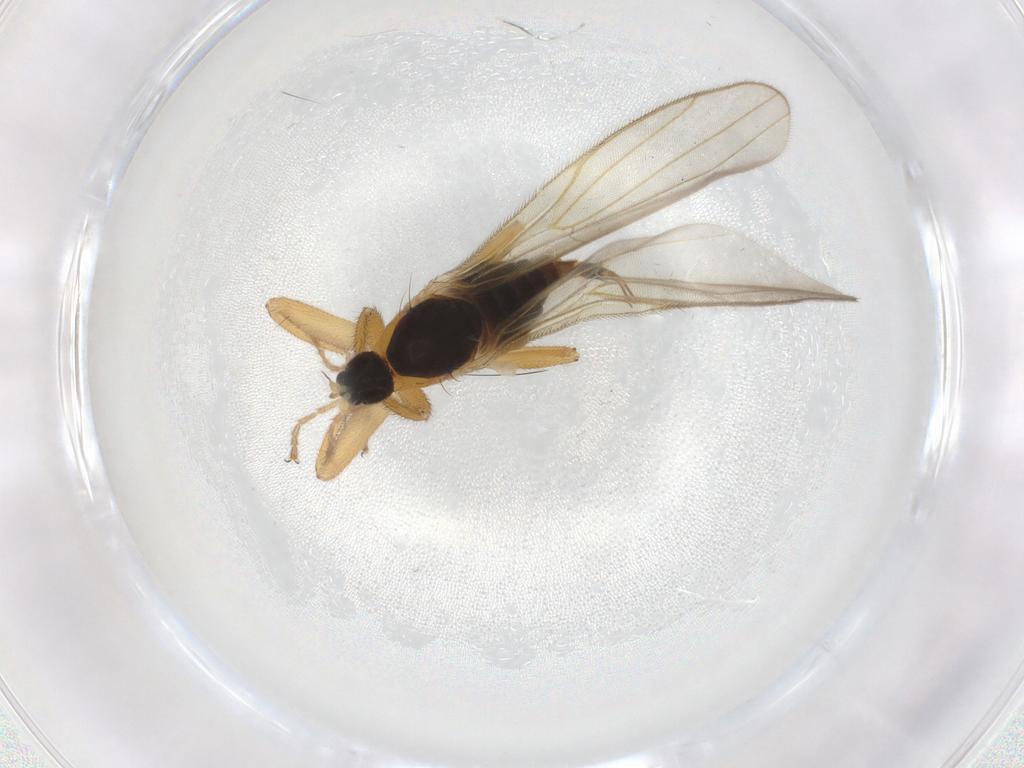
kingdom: Animalia
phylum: Arthropoda
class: Insecta
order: Diptera
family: Hybotidae
